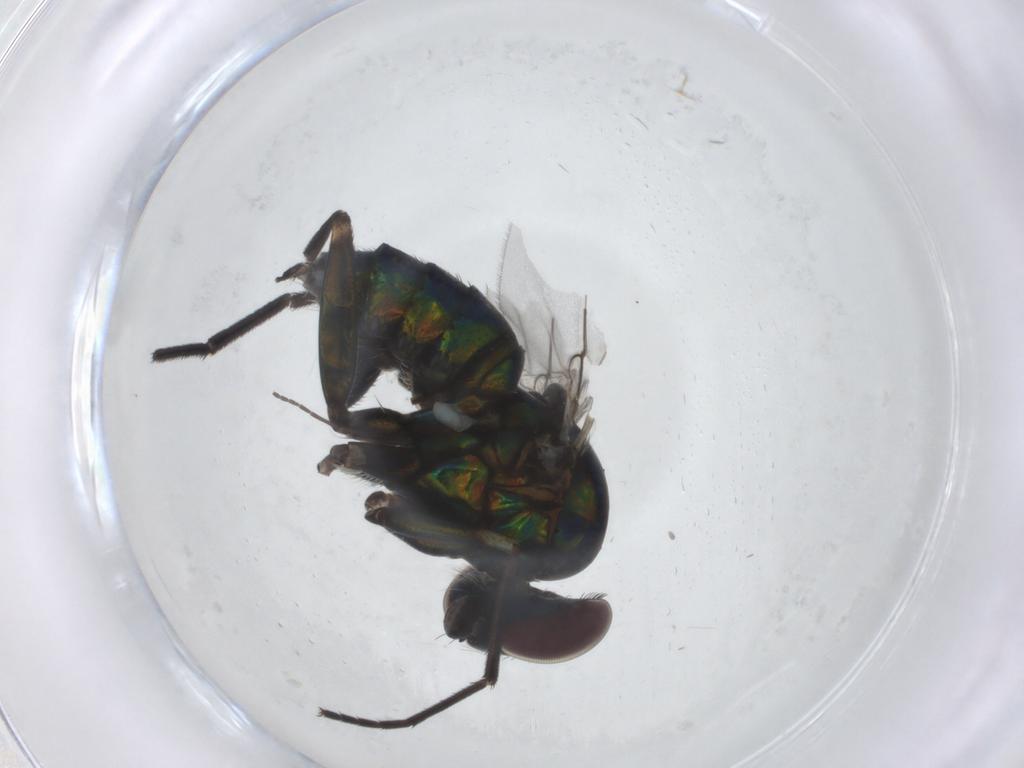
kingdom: Animalia
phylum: Arthropoda
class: Insecta
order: Diptera
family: Dolichopodidae
